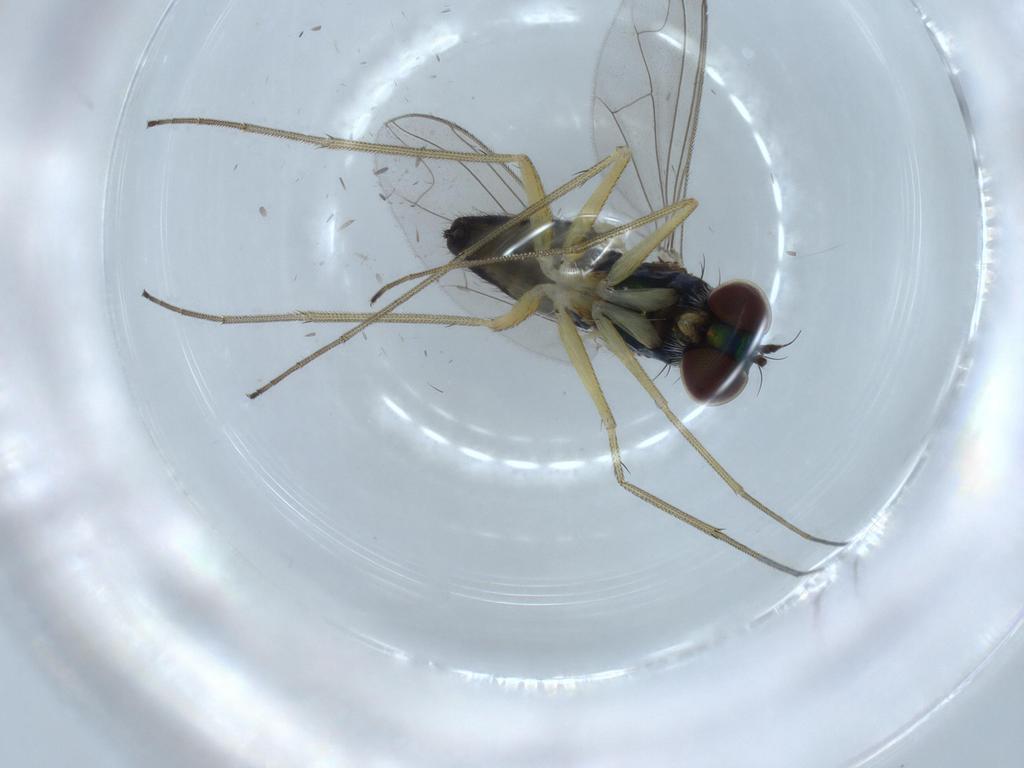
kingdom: Animalia
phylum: Arthropoda
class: Insecta
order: Diptera
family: Dolichopodidae
